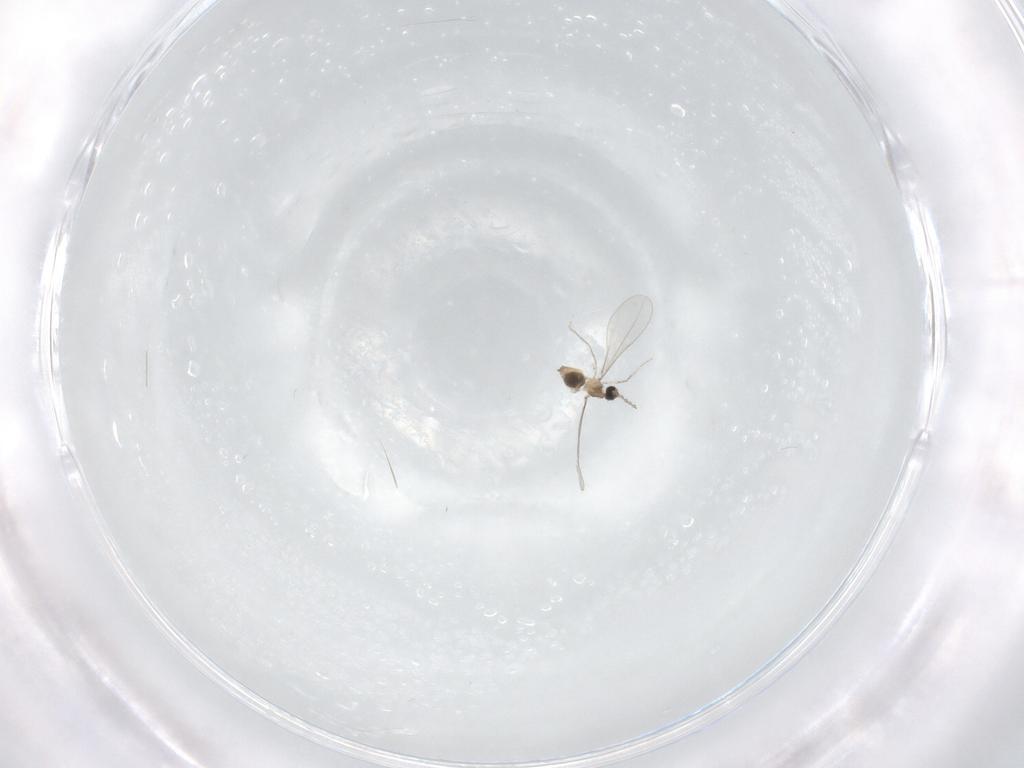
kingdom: Animalia
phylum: Arthropoda
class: Insecta
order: Diptera
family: Cecidomyiidae
